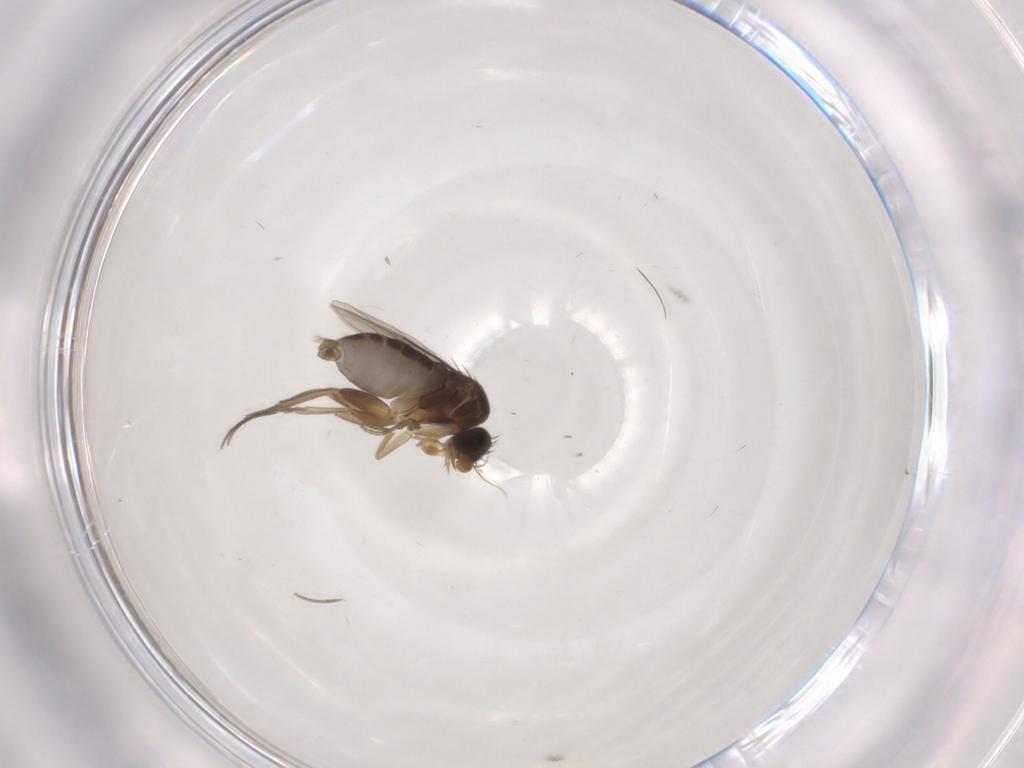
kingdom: Animalia
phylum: Arthropoda
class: Insecta
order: Diptera
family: Phoridae
